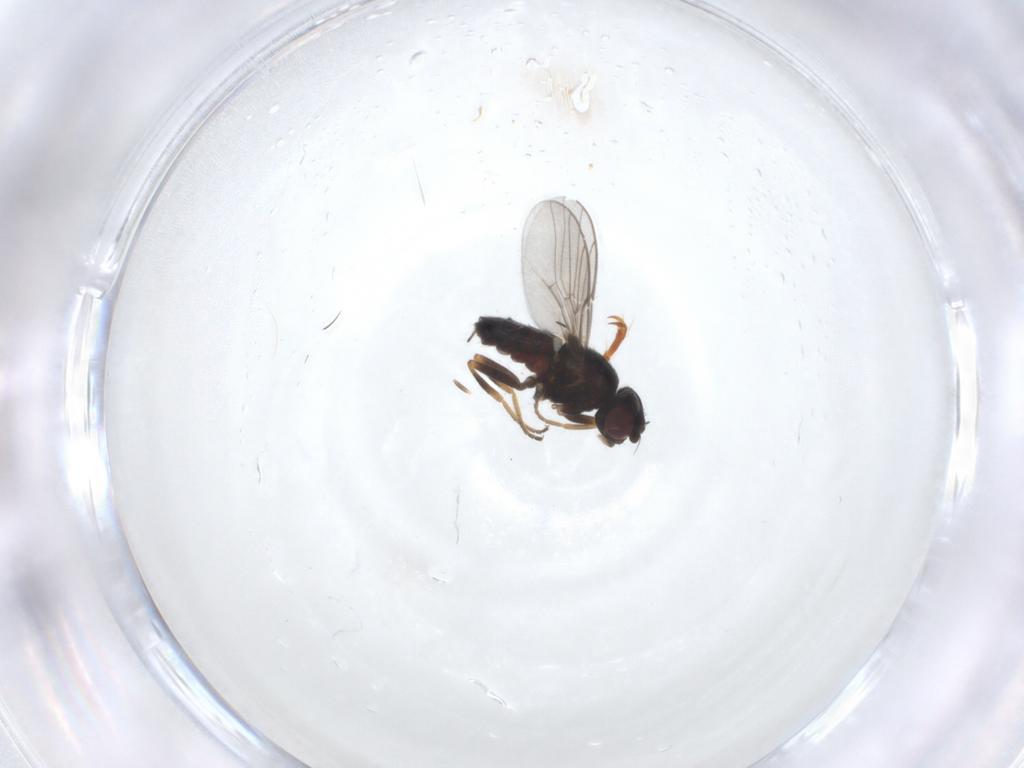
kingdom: Animalia
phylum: Arthropoda
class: Insecta
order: Diptera
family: Chloropidae
